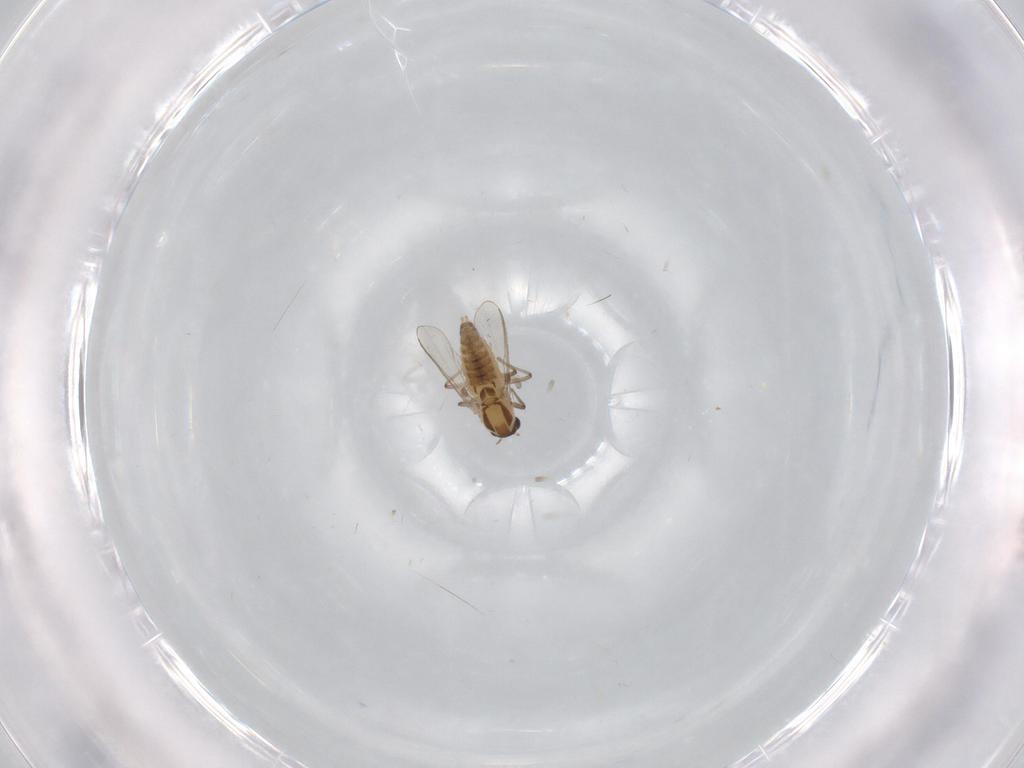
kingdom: Animalia
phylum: Arthropoda
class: Insecta
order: Diptera
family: Chironomidae
